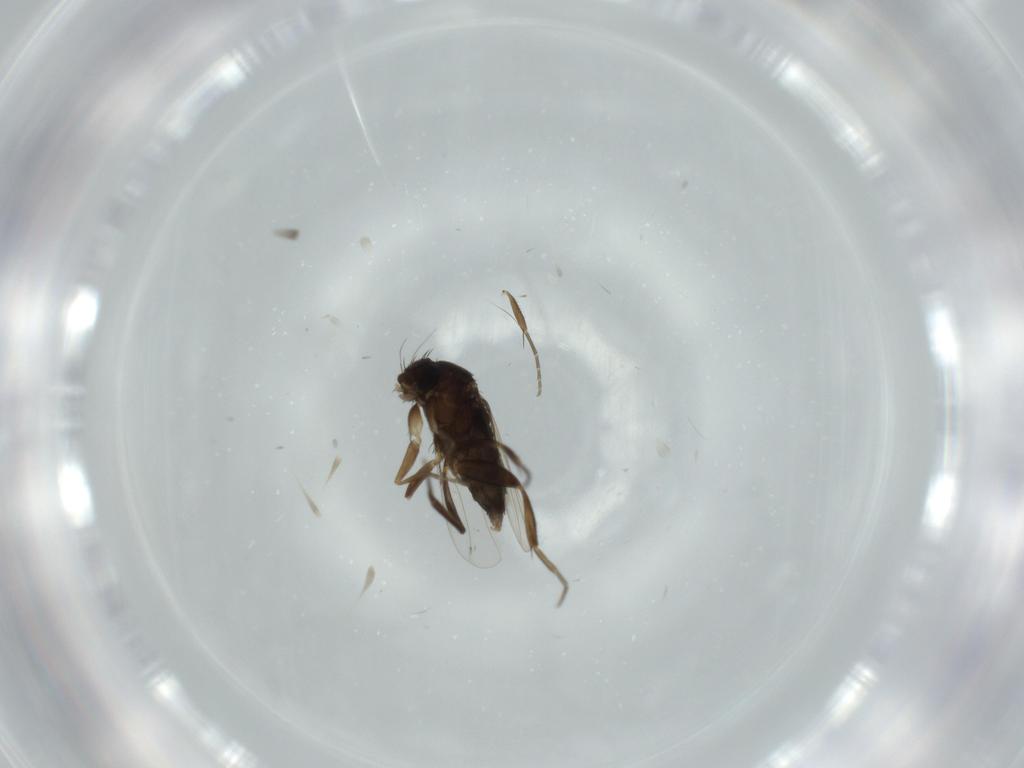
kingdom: Animalia
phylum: Arthropoda
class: Insecta
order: Diptera
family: Phoridae
